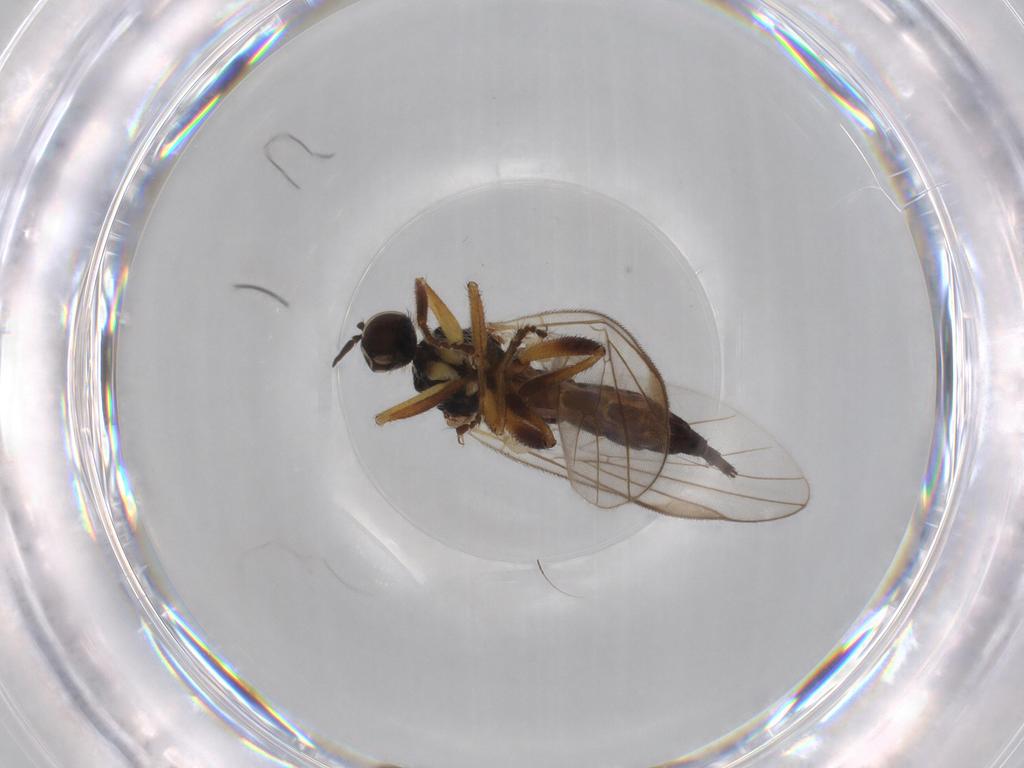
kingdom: Animalia
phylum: Arthropoda
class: Insecta
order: Diptera
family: Hybotidae
